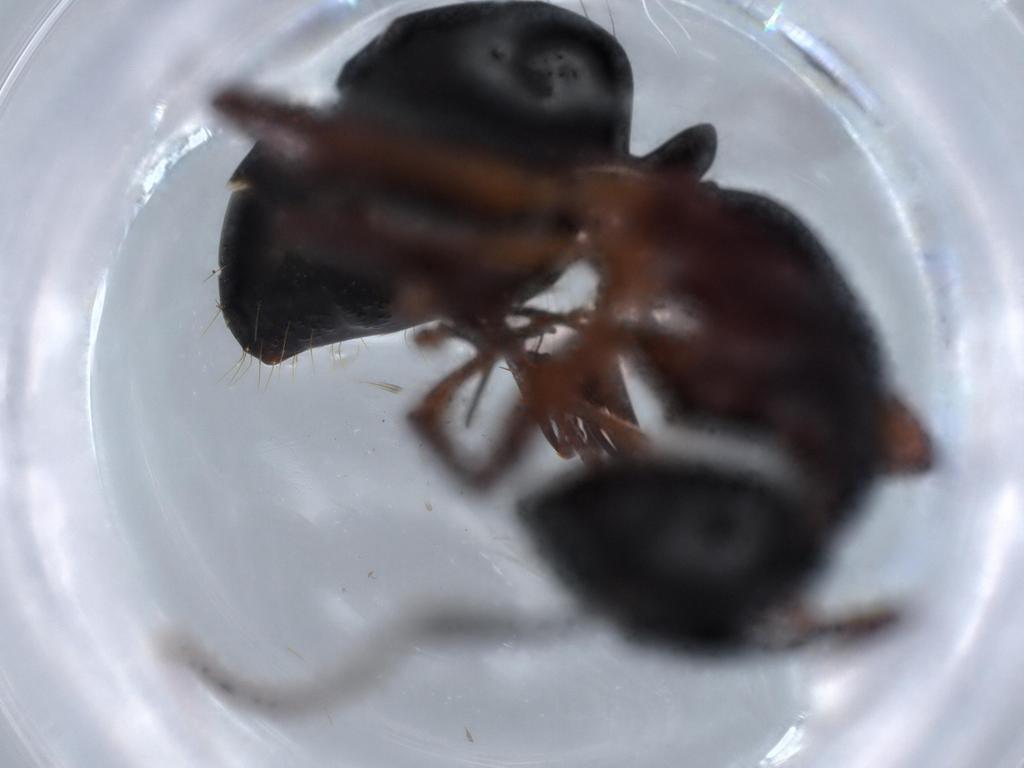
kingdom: Animalia
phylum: Arthropoda
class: Insecta
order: Hymenoptera
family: Formicidae
